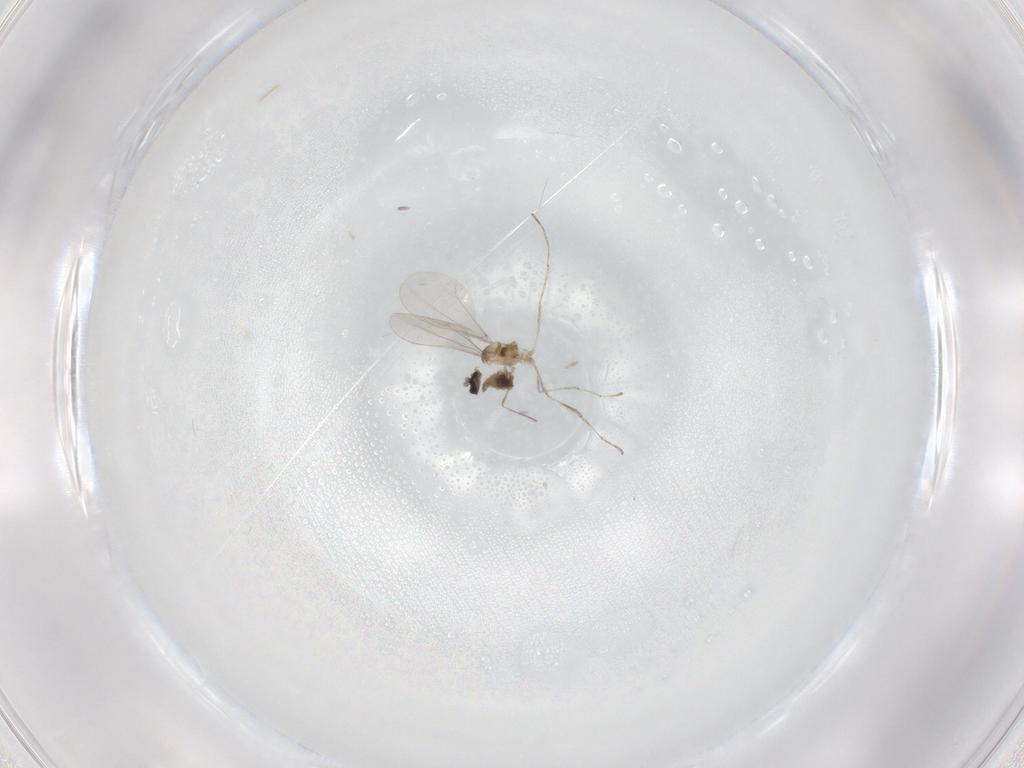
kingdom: Animalia
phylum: Arthropoda
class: Insecta
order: Diptera
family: Cecidomyiidae
